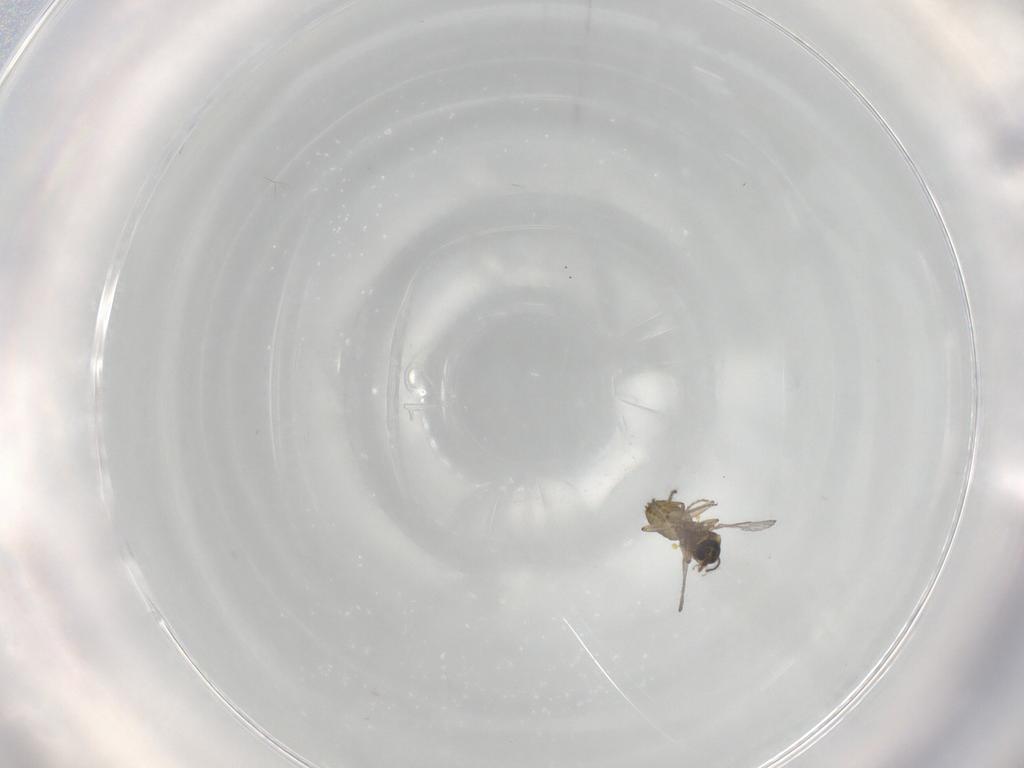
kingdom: Animalia
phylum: Arthropoda
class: Insecta
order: Diptera
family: Ceratopogonidae
